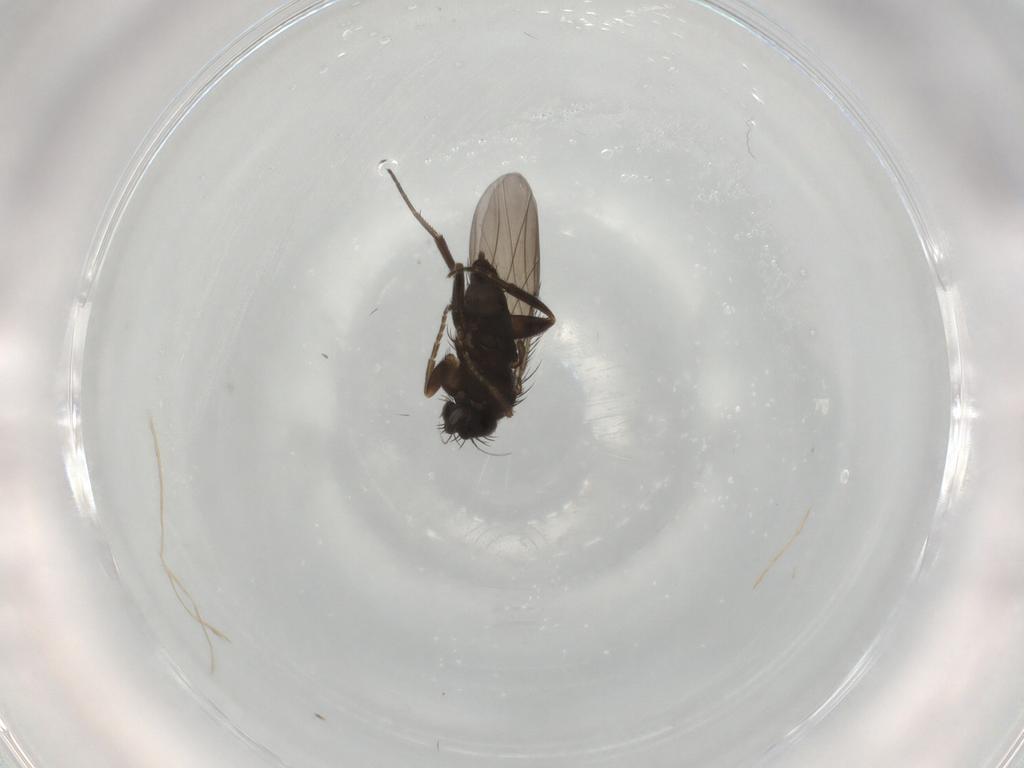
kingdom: Animalia
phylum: Arthropoda
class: Insecta
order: Diptera
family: Phoridae
